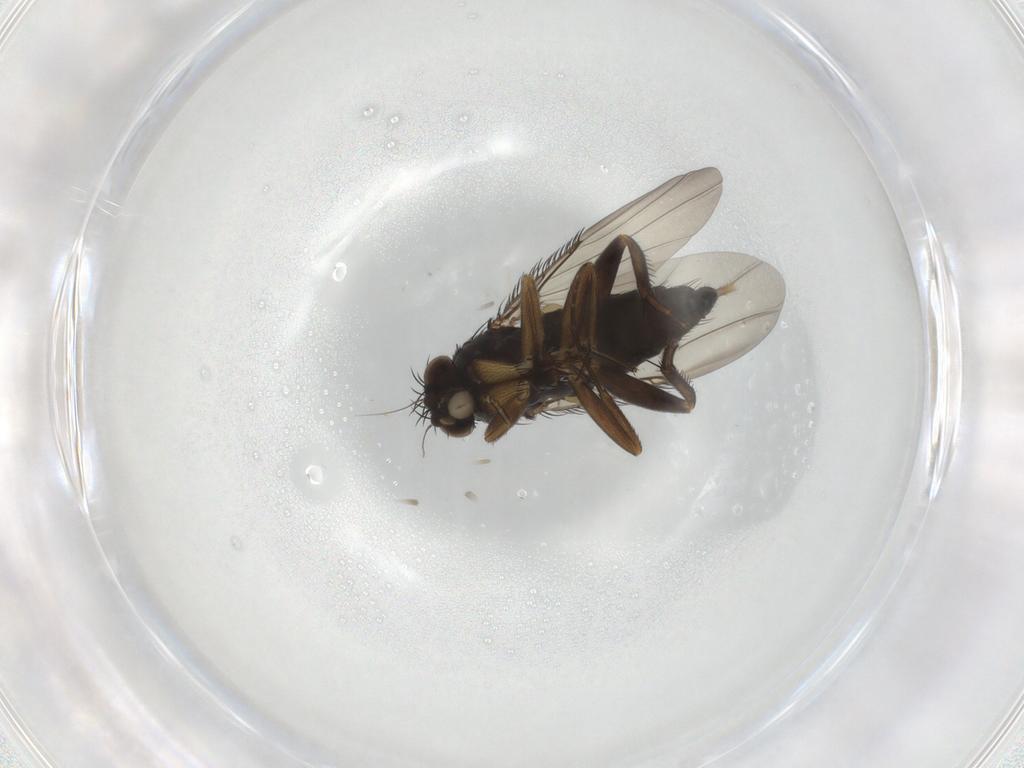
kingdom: Animalia
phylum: Arthropoda
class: Insecta
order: Diptera
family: Phoridae
